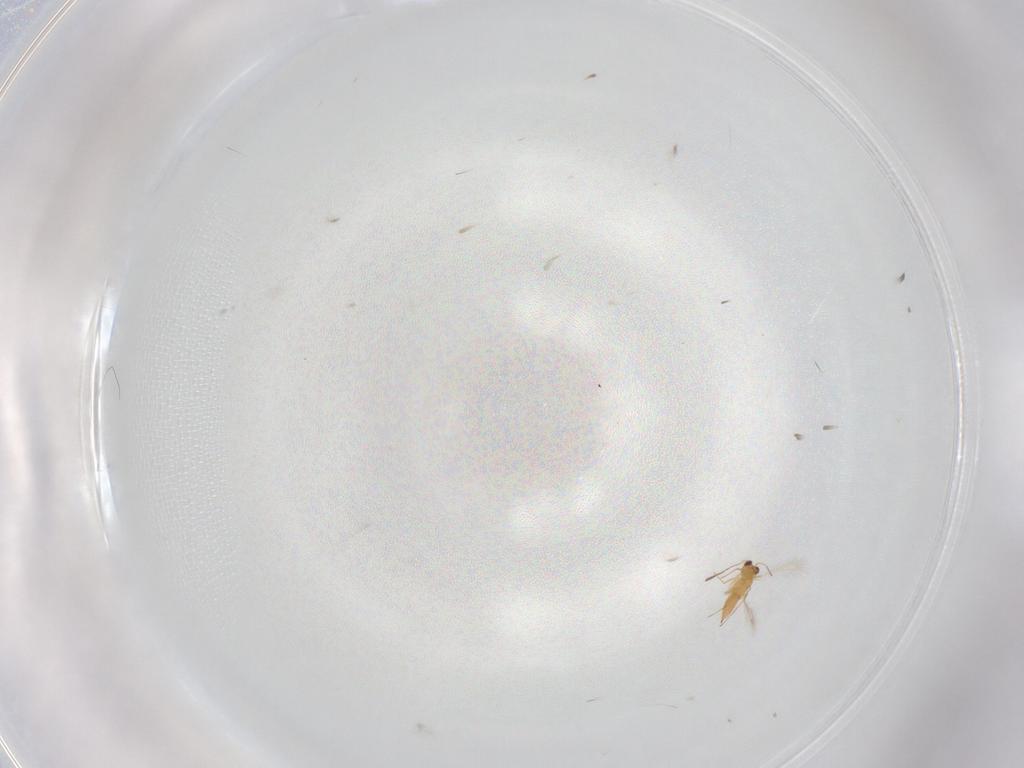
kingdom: Animalia
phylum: Arthropoda
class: Insecta
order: Hymenoptera
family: Mymaridae
